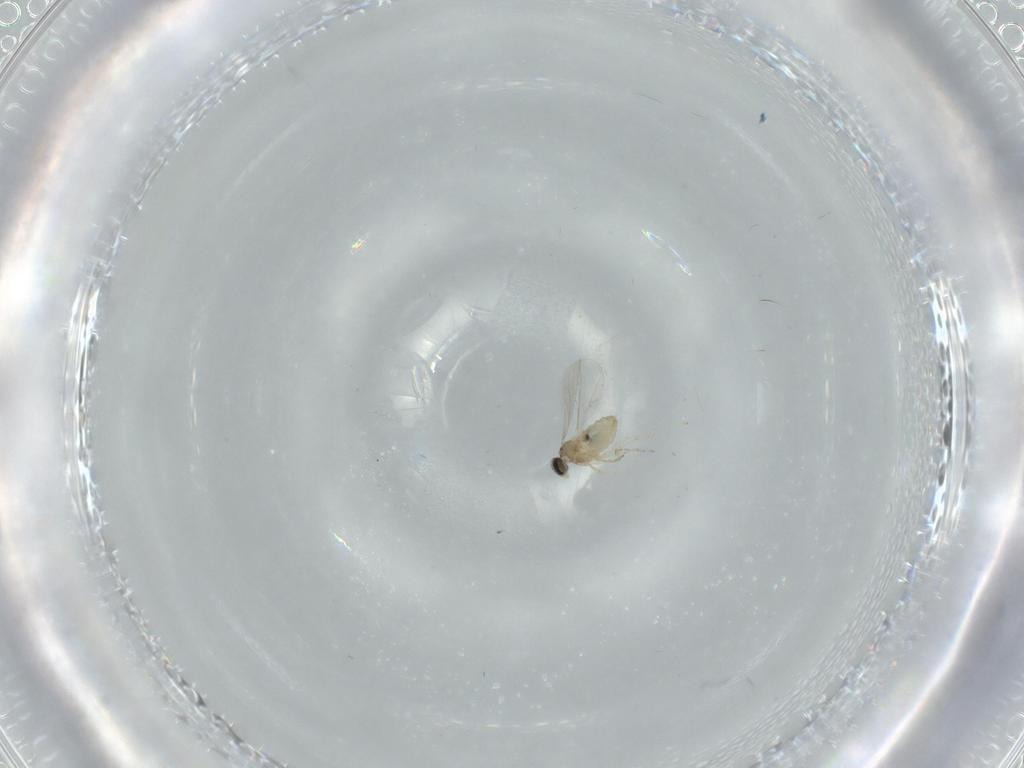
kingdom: Animalia
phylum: Arthropoda
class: Insecta
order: Diptera
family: Cecidomyiidae
